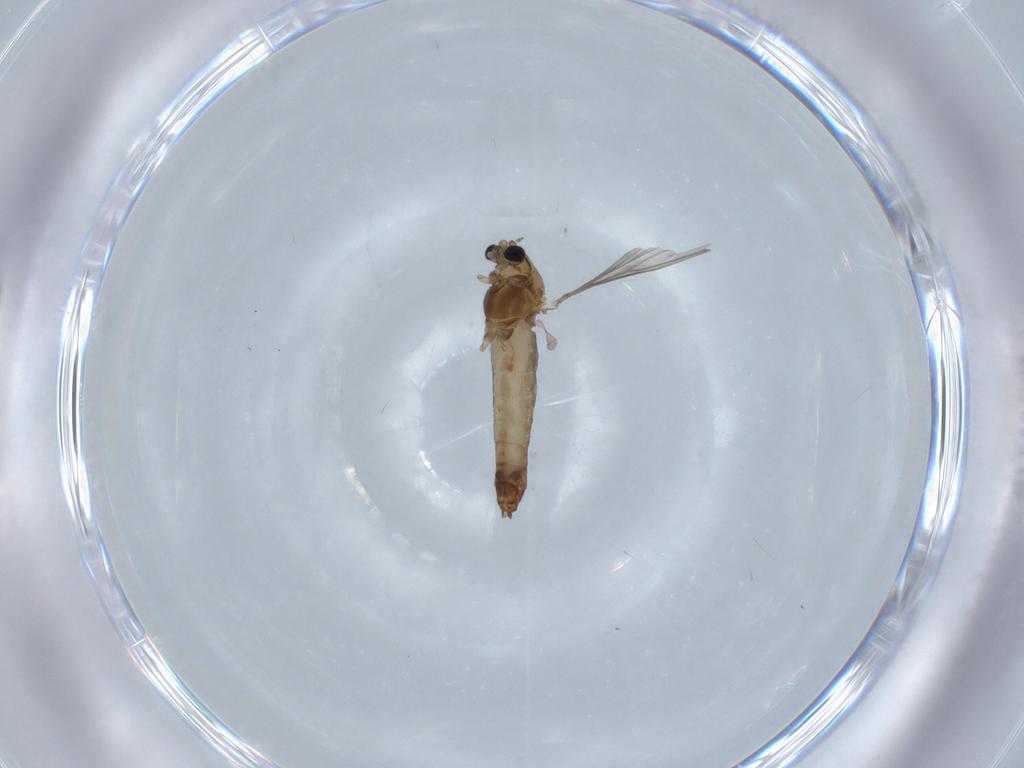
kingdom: Animalia
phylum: Arthropoda
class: Insecta
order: Diptera
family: Chironomidae
